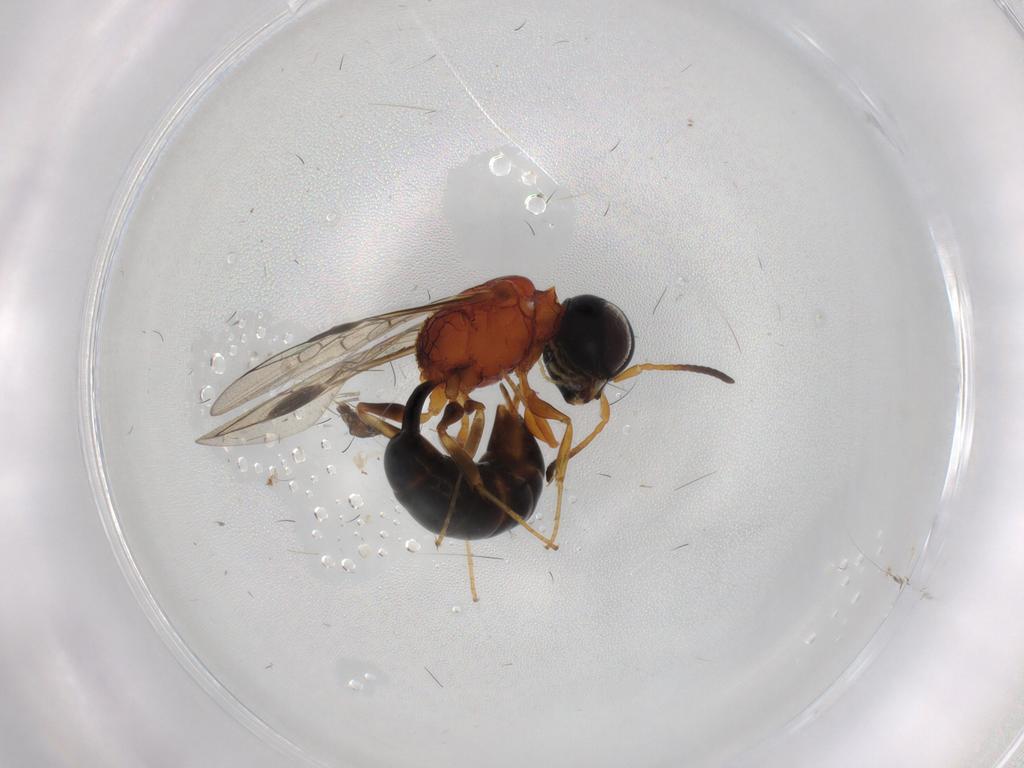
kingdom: Animalia
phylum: Arthropoda
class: Insecta
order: Hymenoptera
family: Pemphredonidae
